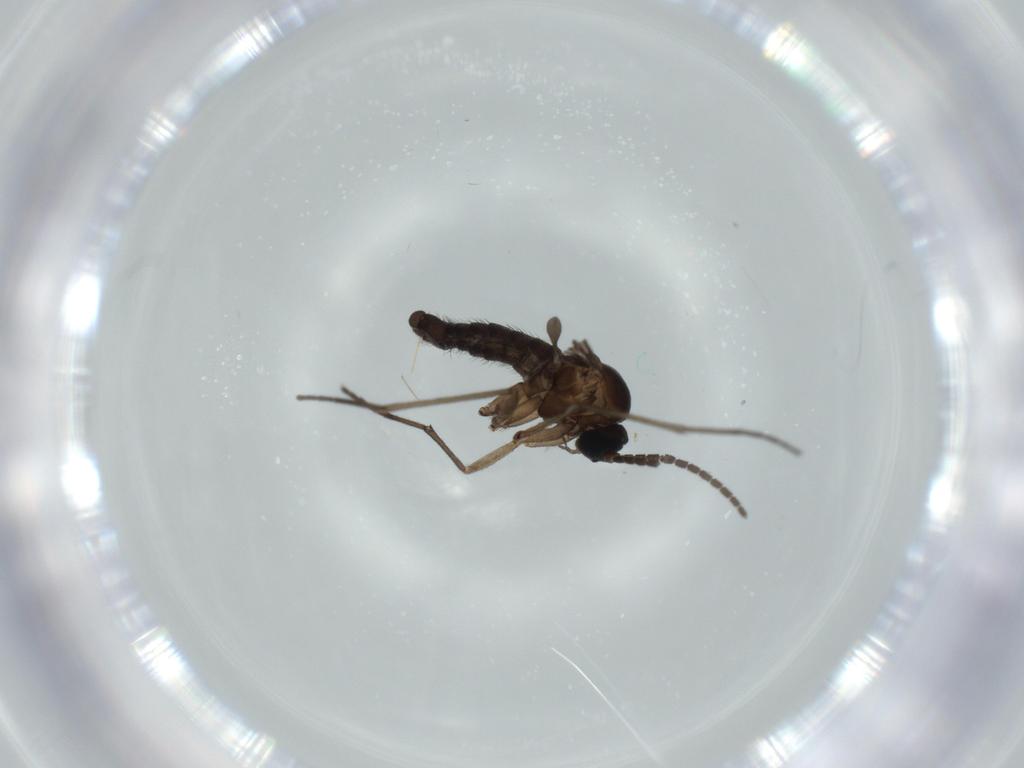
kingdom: Animalia
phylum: Arthropoda
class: Insecta
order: Diptera
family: Sciaridae
